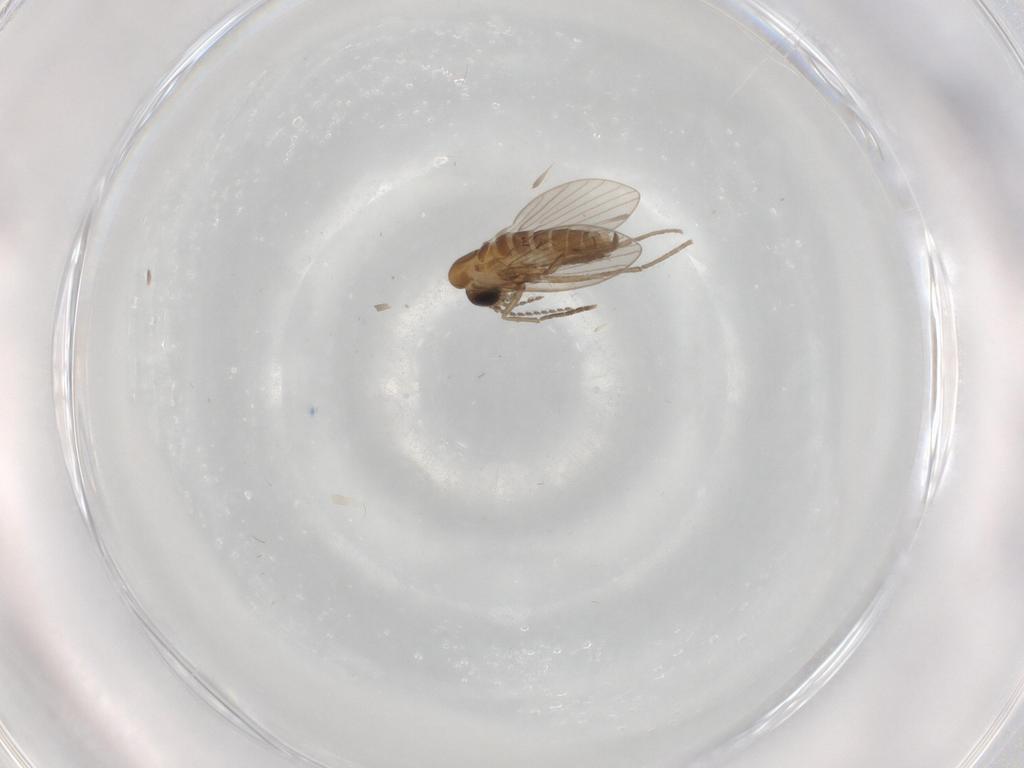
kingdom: Animalia
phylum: Arthropoda
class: Insecta
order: Diptera
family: Psychodidae
